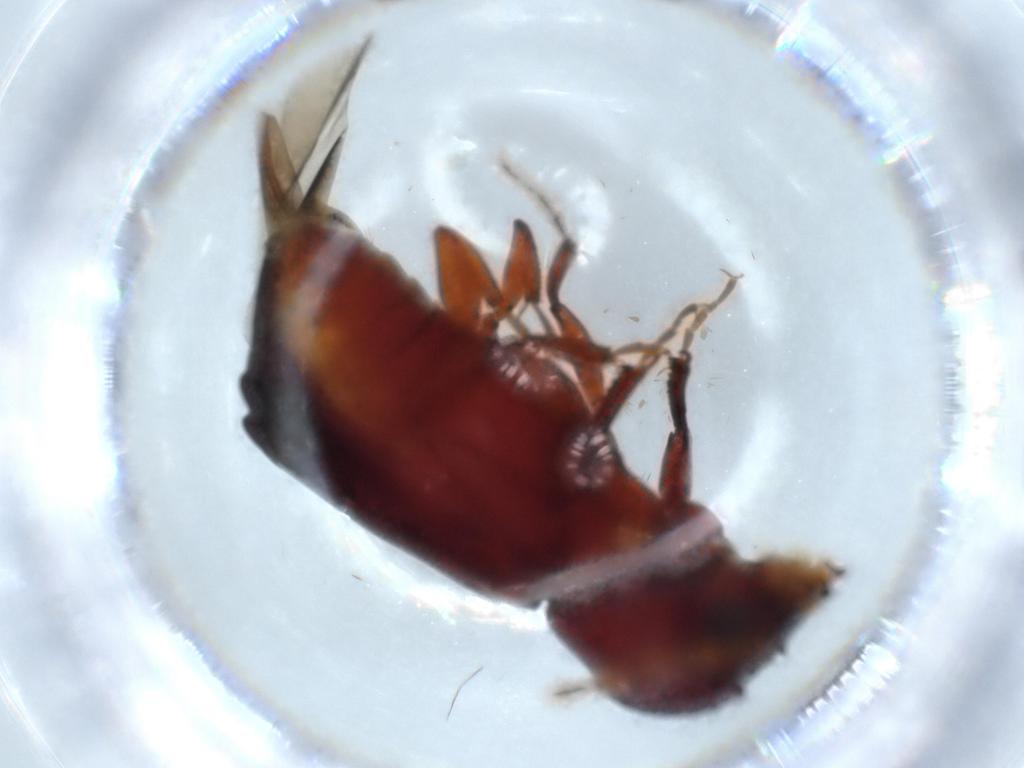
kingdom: Animalia
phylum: Arthropoda
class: Insecta
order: Coleoptera
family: Bostrichidae
